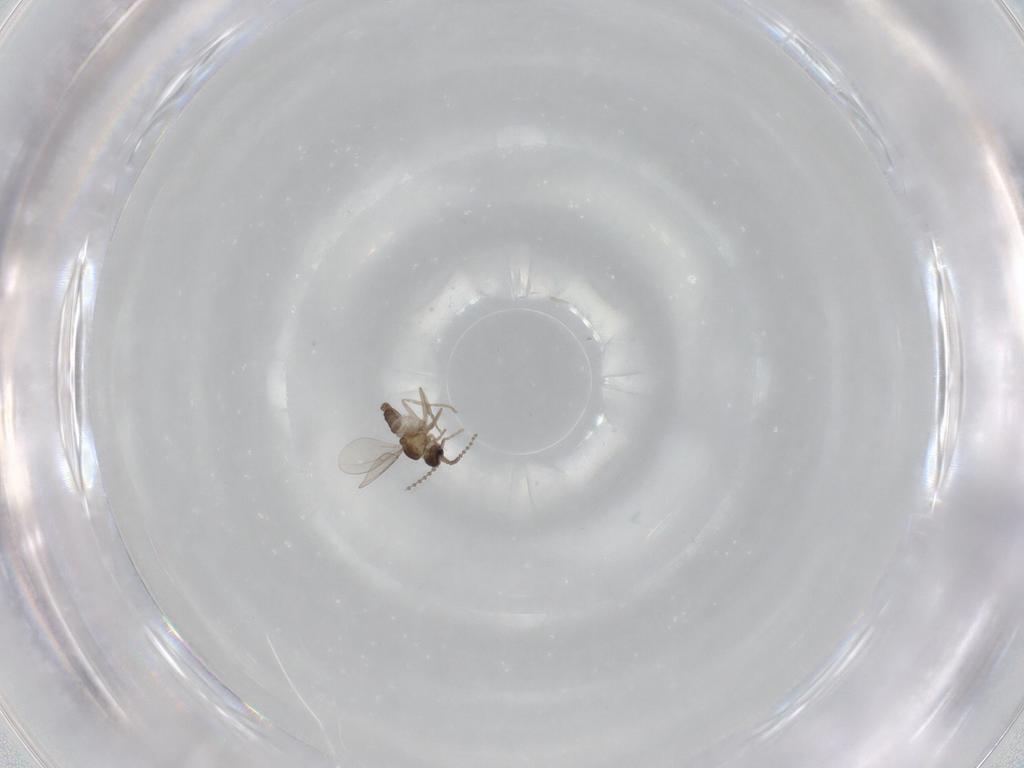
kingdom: Animalia
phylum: Arthropoda
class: Insecta
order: Diptera
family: Cecidomyiidae
